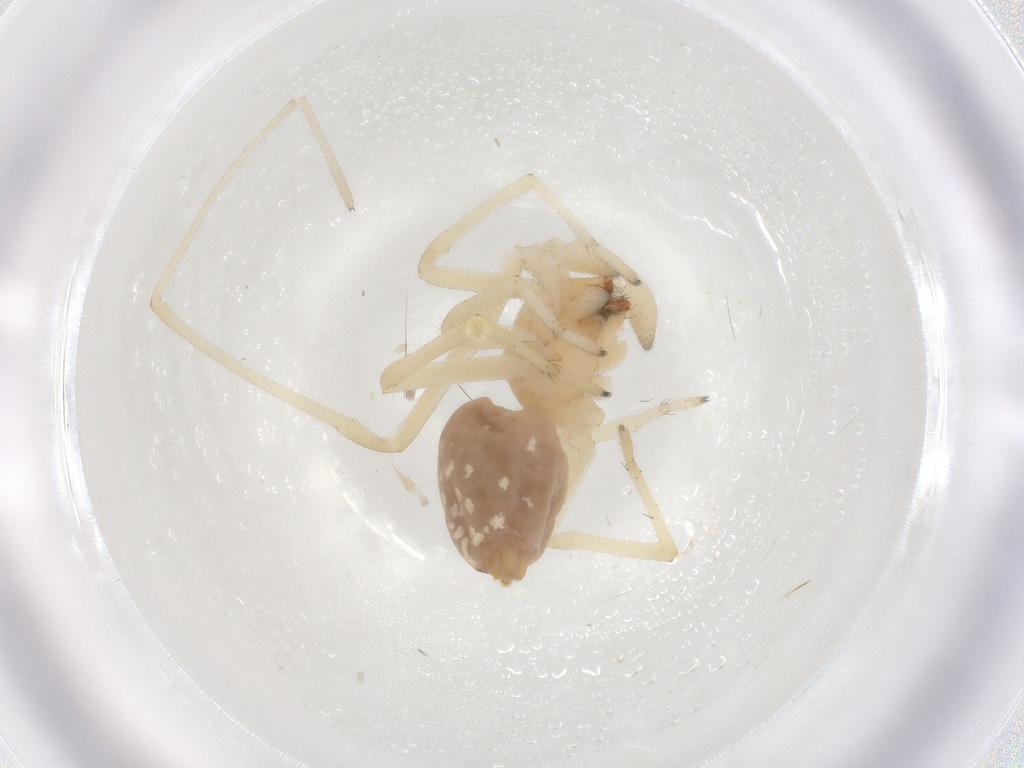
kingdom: Animalia
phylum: Arthropoda
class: Arachnida
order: Araneae
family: Cheiracanthiidae
